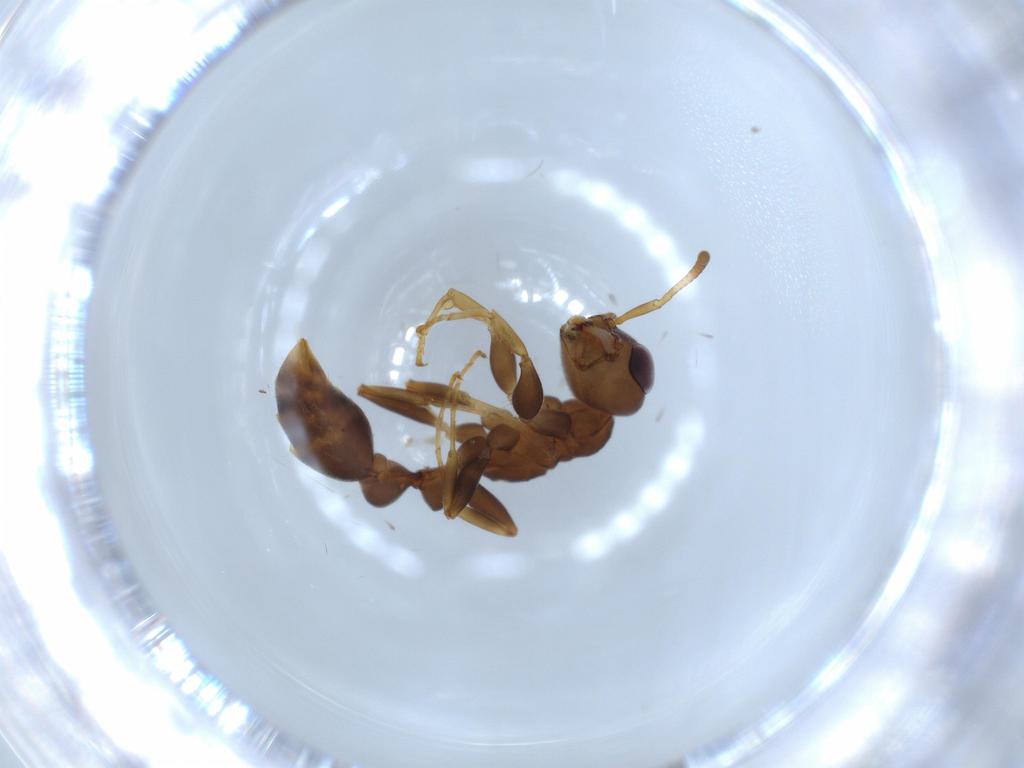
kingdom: Animalia
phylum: Arthropoda
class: Insecta
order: Hymenoptera
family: Formicidae
